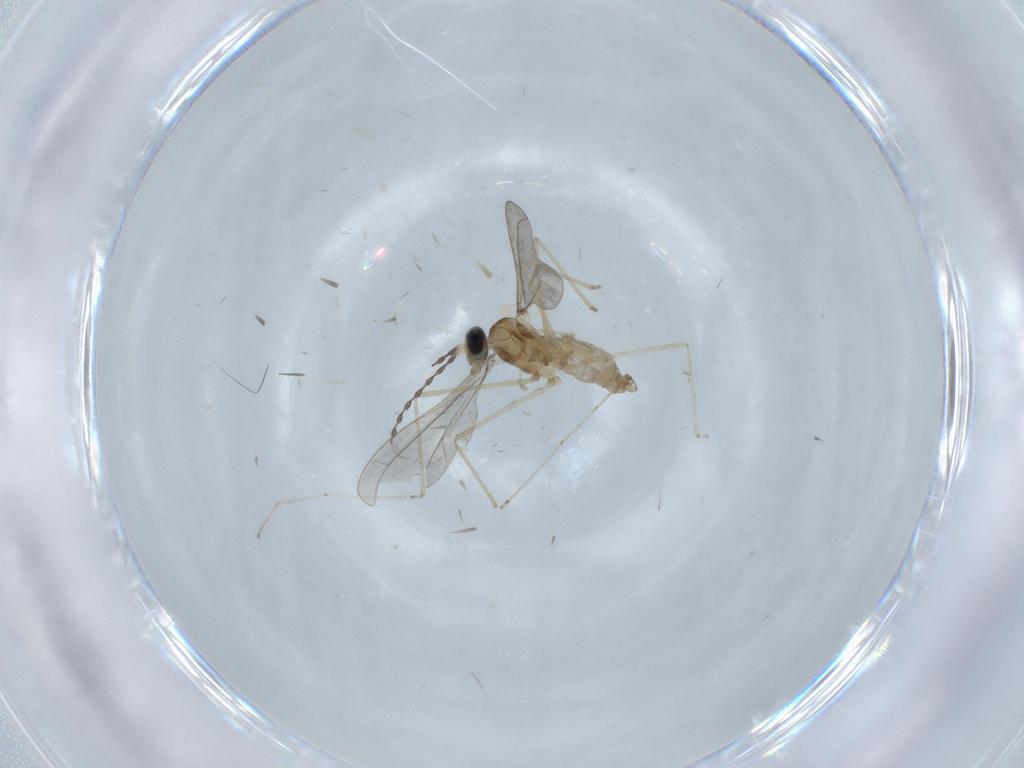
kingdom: Animalia
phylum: Arthropoda
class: Insecta
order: Diptera
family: Cecidomyiidae
